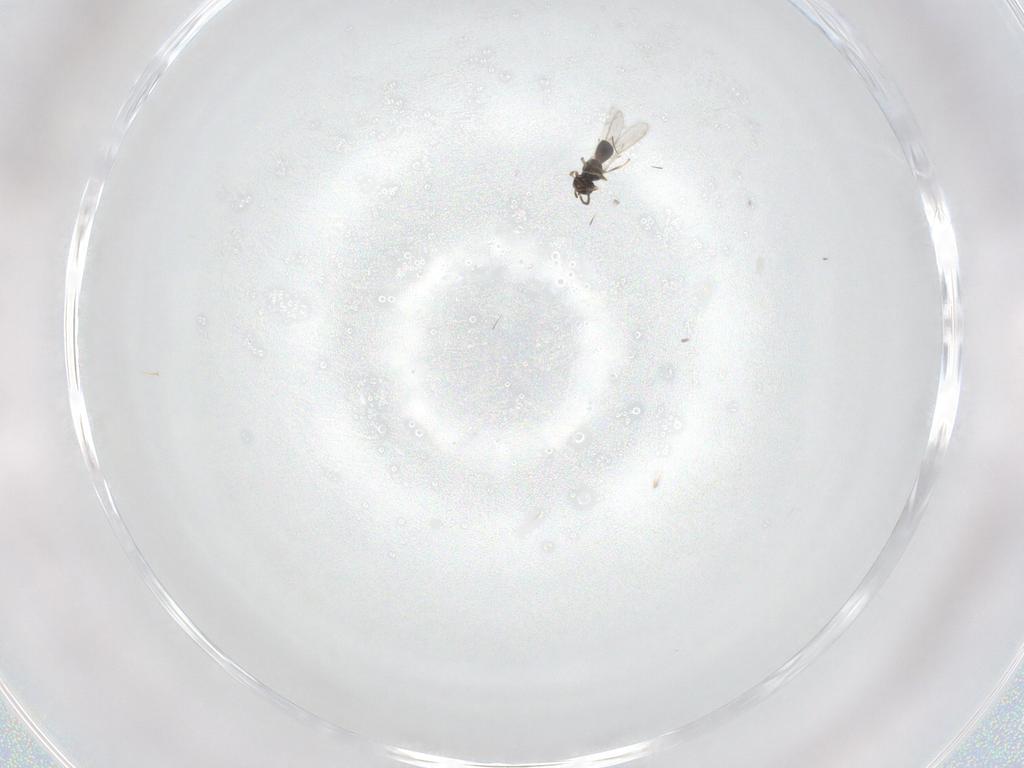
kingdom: Animalia
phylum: Arthropoda
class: Insecta
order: Hymenoptera
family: Scelionidae
